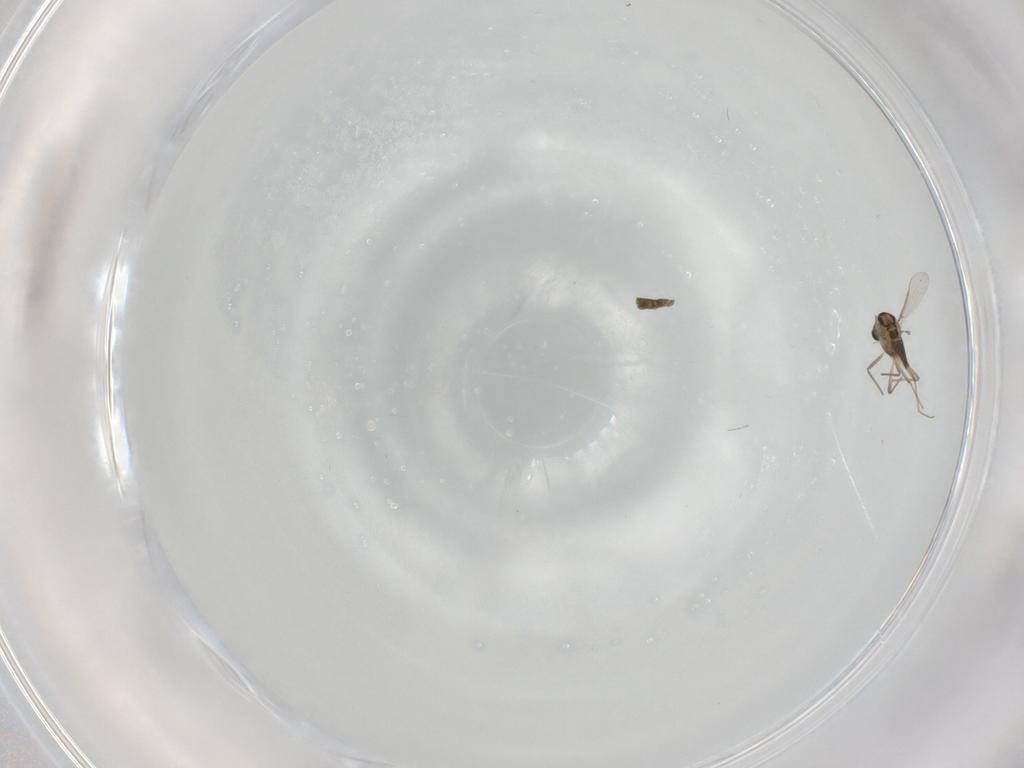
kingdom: Animalia
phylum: Arthropoda
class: Insecta
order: Diptera
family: Chironomidae
